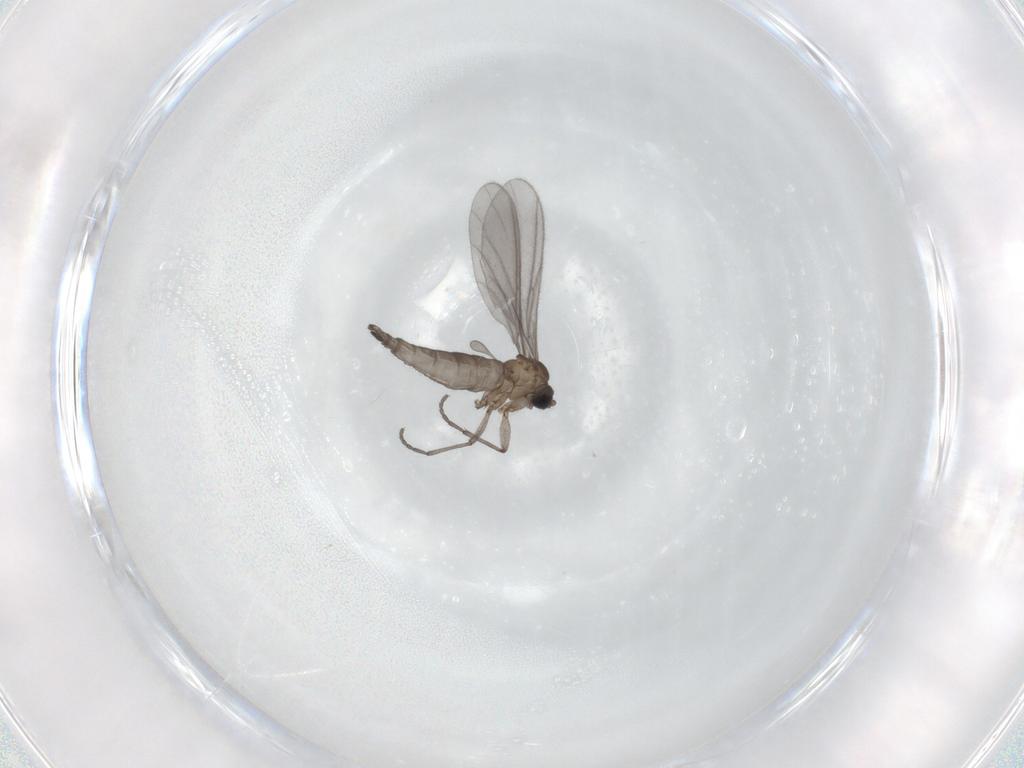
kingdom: Animalia
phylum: Arthropoda
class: Insecta
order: Diptera
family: Sciaridae
